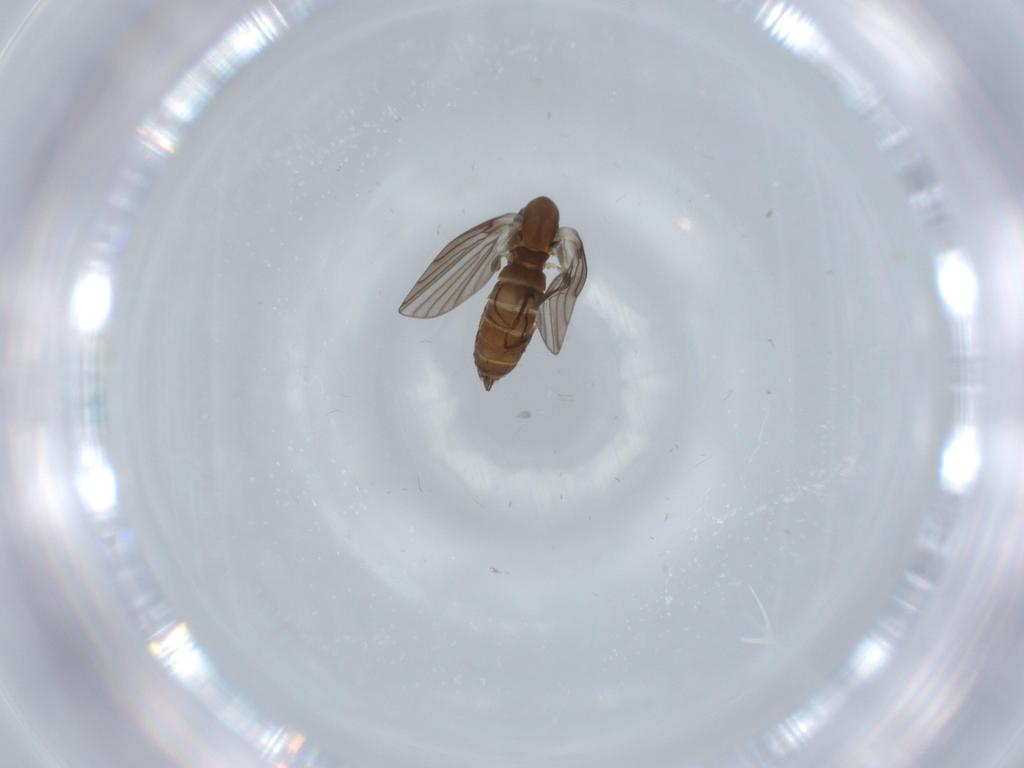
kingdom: Animalia
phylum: Arthropoda
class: Insecta
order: Diptera
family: Psychodidae
